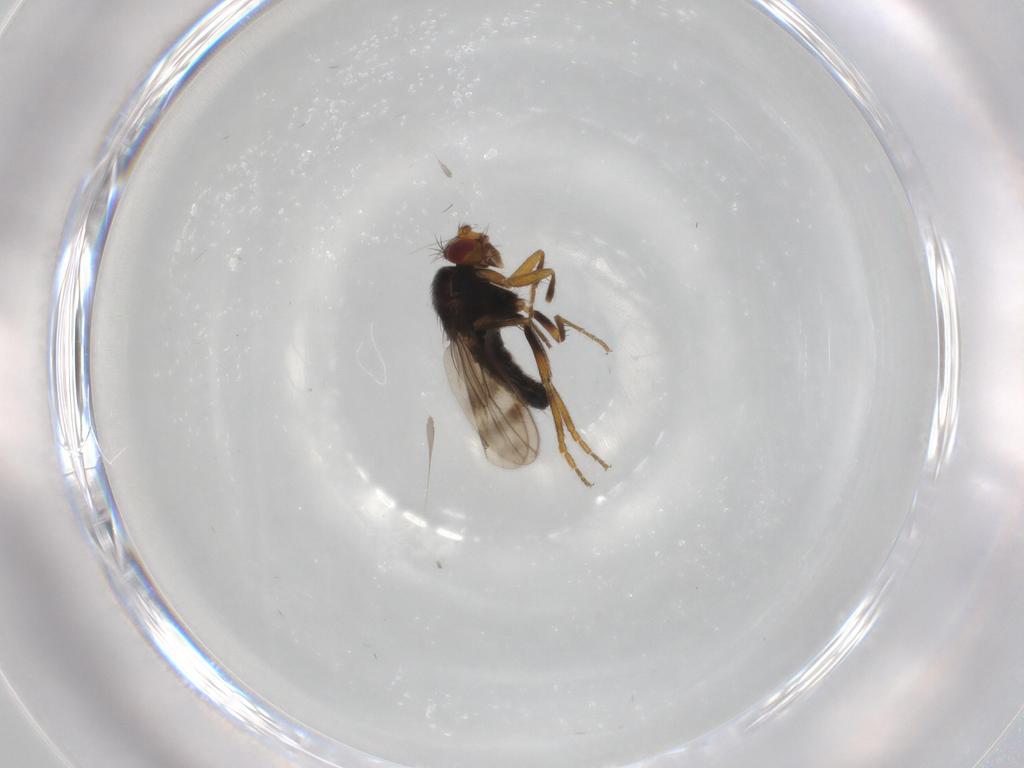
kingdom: Animalia
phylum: Arthropoda
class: Insecta
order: Diptera
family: Sphaeroceridae
